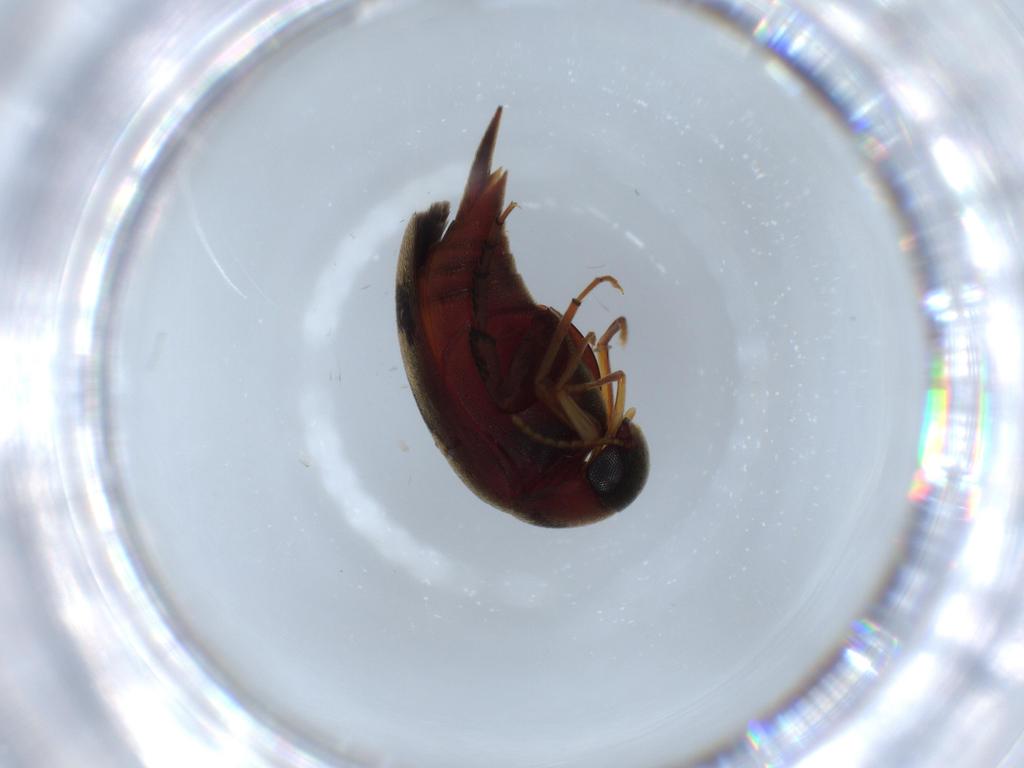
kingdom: Animalia
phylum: Arthropoda
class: Insecta
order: Coleoptera
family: Mordellidae
